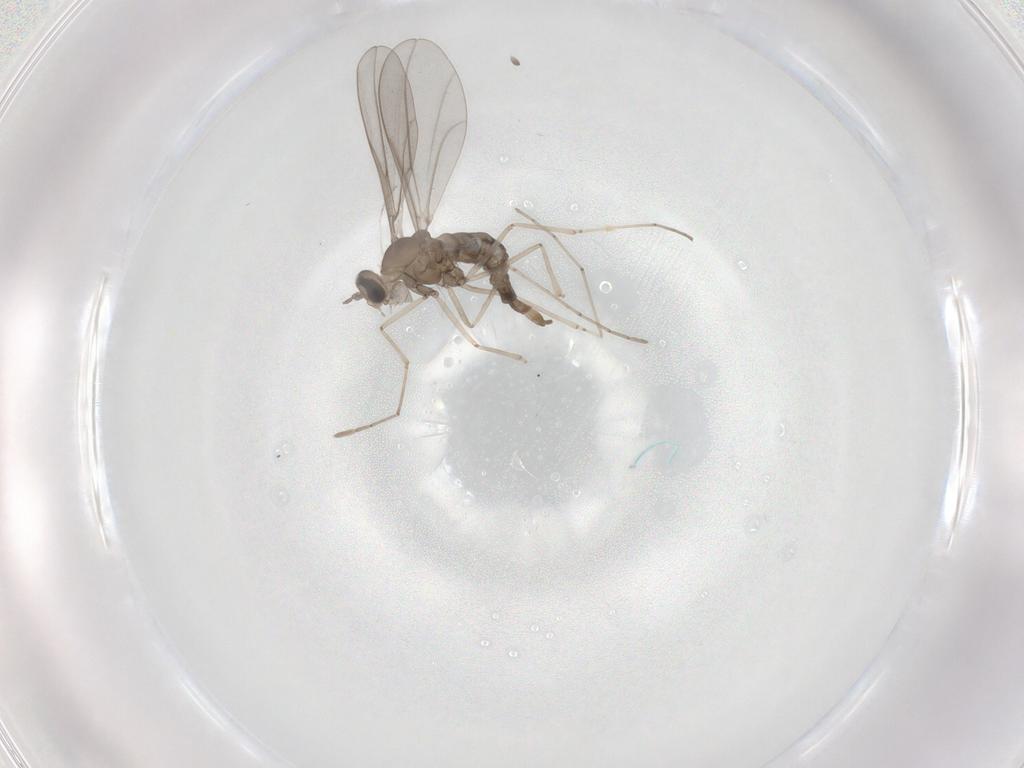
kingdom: Animalia
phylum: Arthropoda
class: Insecta
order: Diptera
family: Cecidomyiidae
